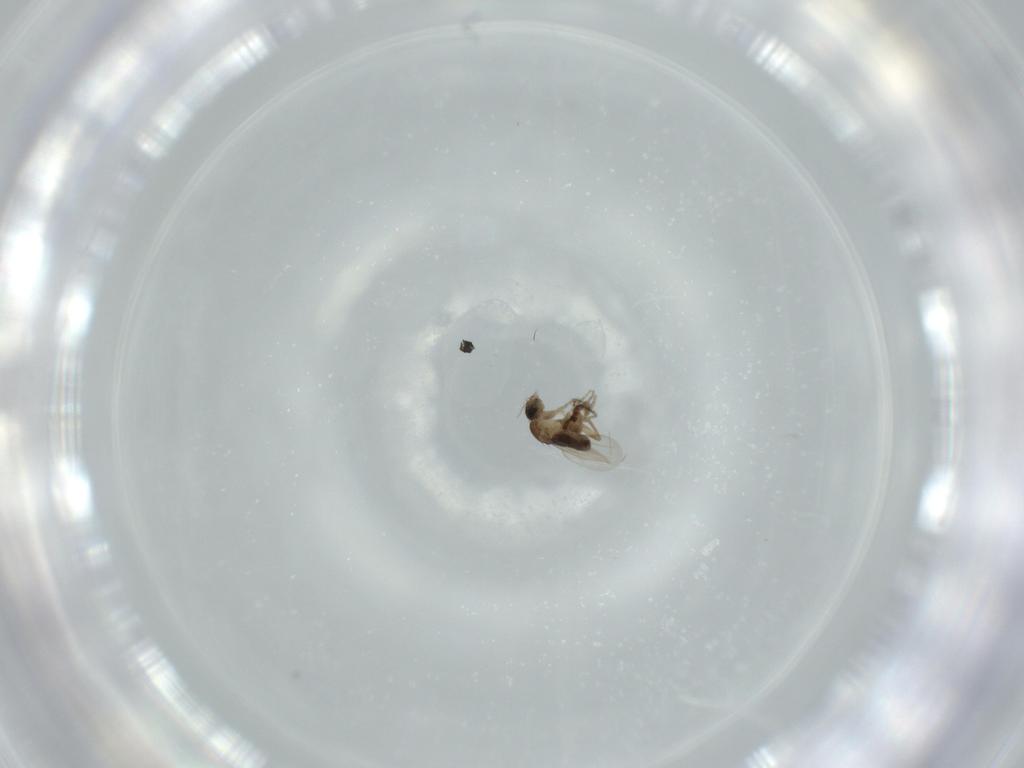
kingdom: Animalia
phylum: Arthropoda
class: Insecta
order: Diptera
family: Phoridae
